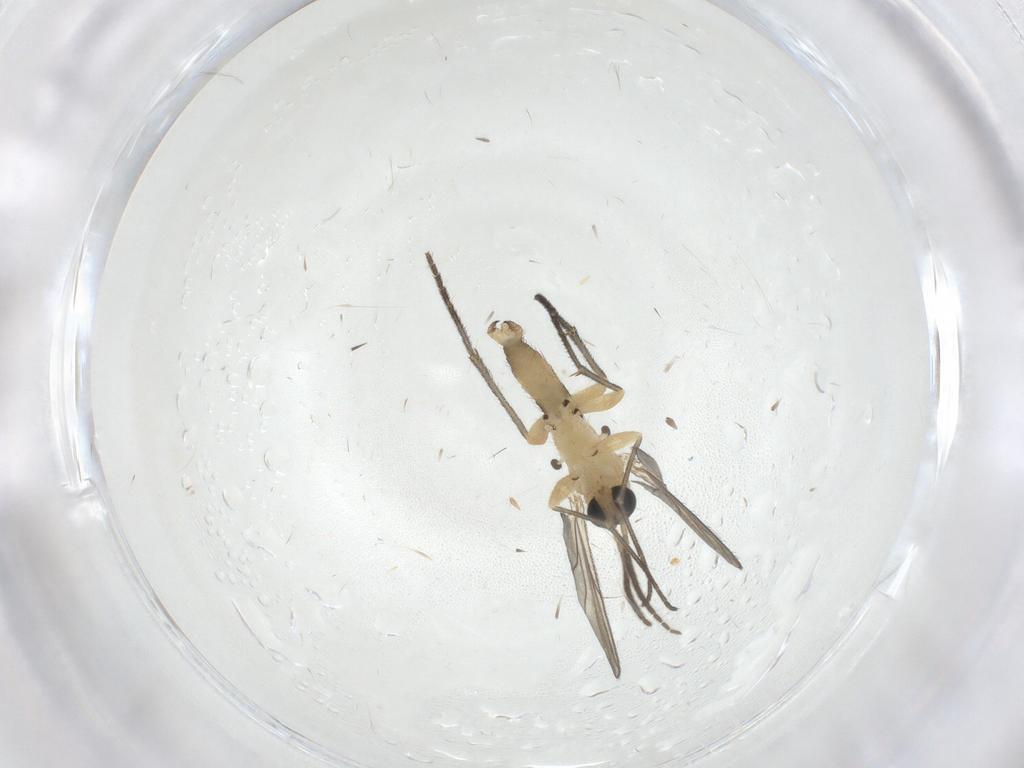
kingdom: Animalia
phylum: Arthropoda
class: Insecta
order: Diptera
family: Sciaridae
